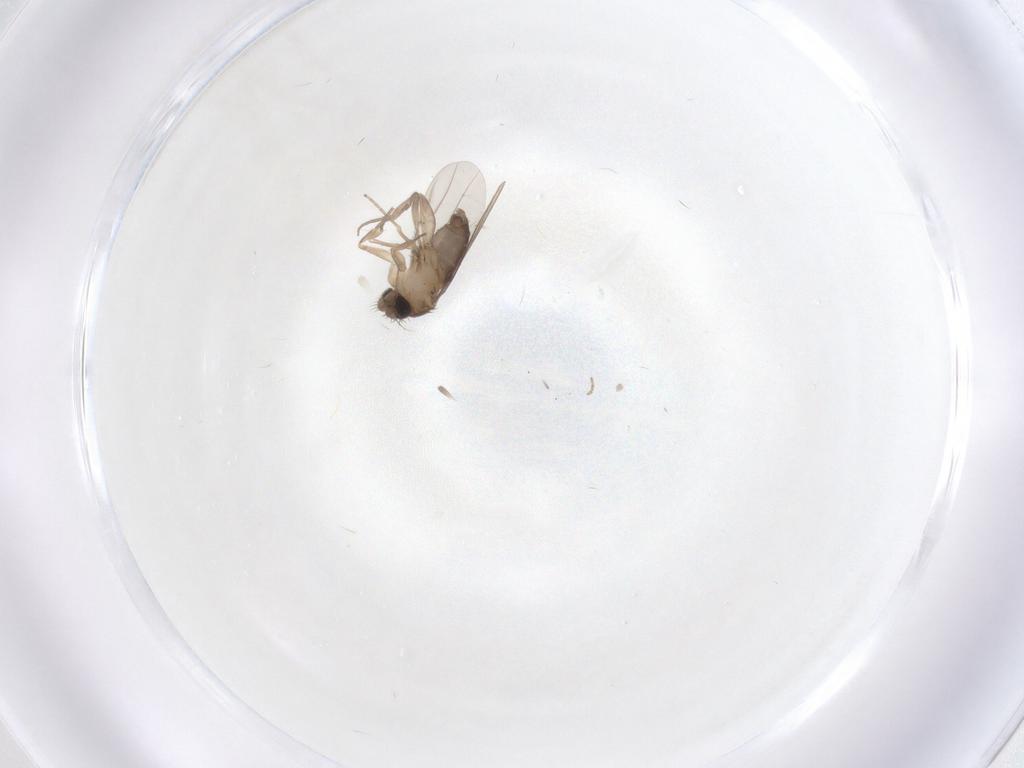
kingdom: Animalia
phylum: Arthropoda
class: Insecta
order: Diptera
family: Phoridae
